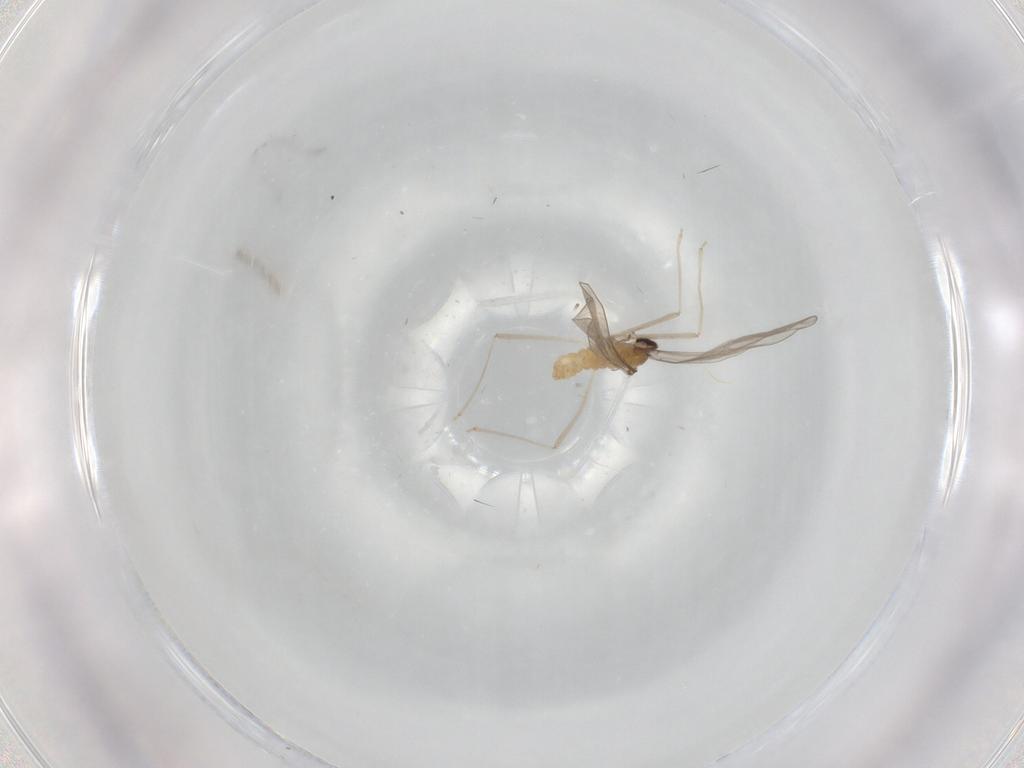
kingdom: Animalia
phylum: Arthropoda
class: Insecta
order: Diptera
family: Cecidomyiidae
